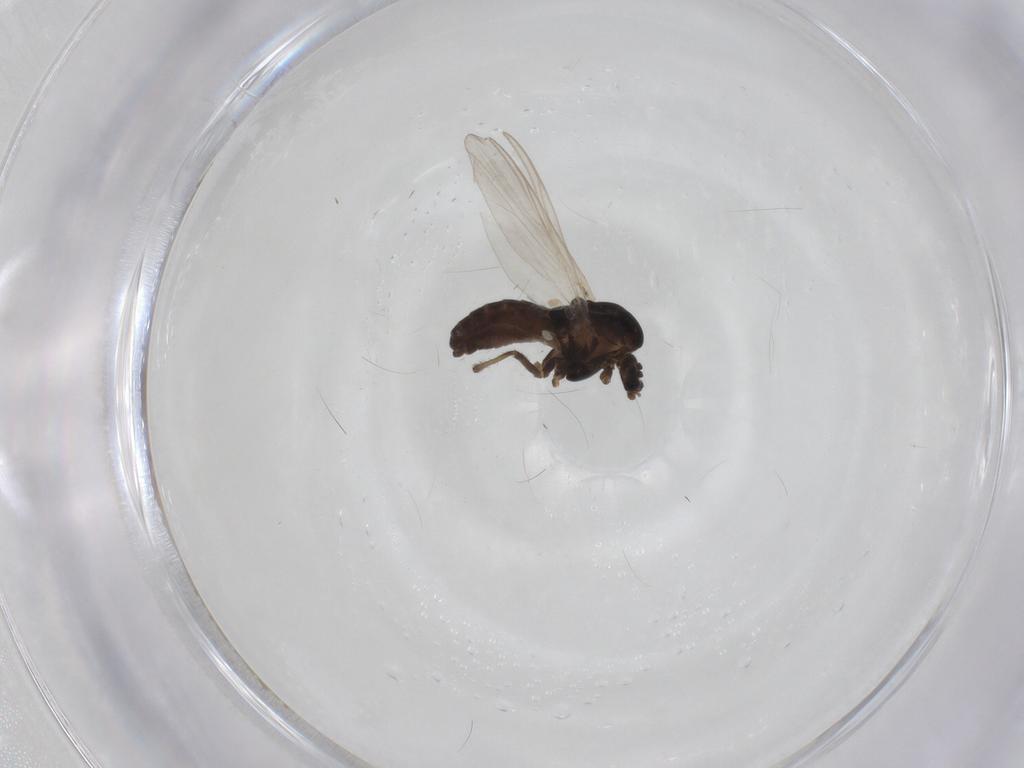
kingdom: Animalia
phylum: Arthropoda
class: Insecta
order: Diptera
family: Chironomidae
